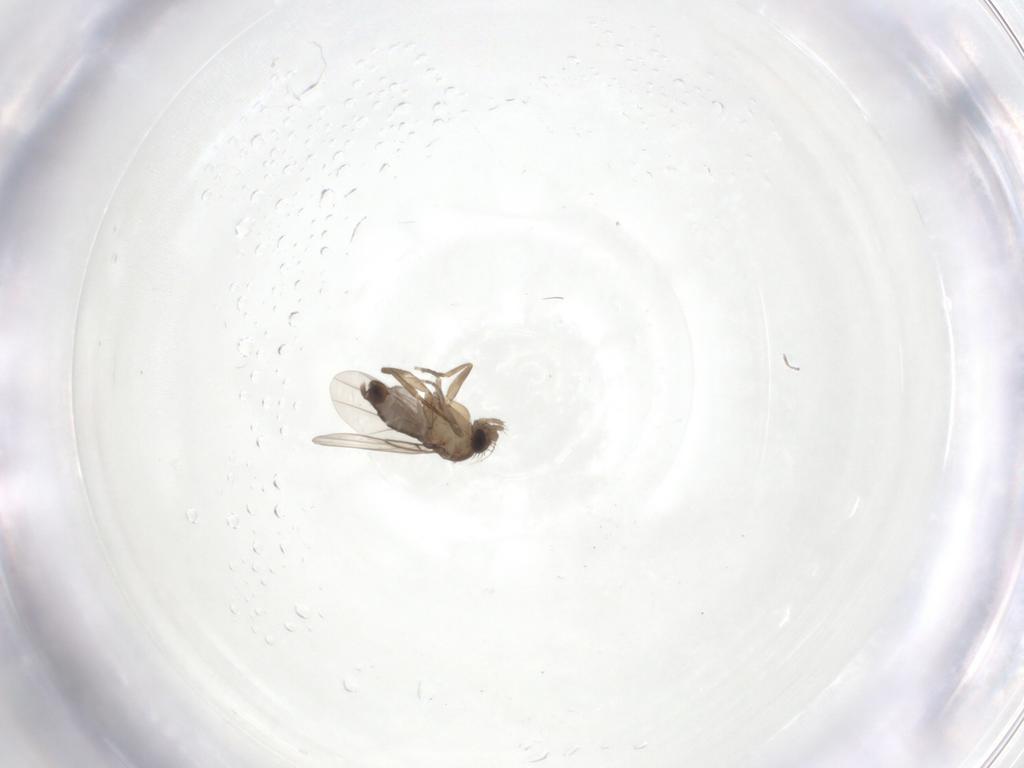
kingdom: Animalia
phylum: Arthropoda
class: Insecta
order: Diptera
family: Phoridae
